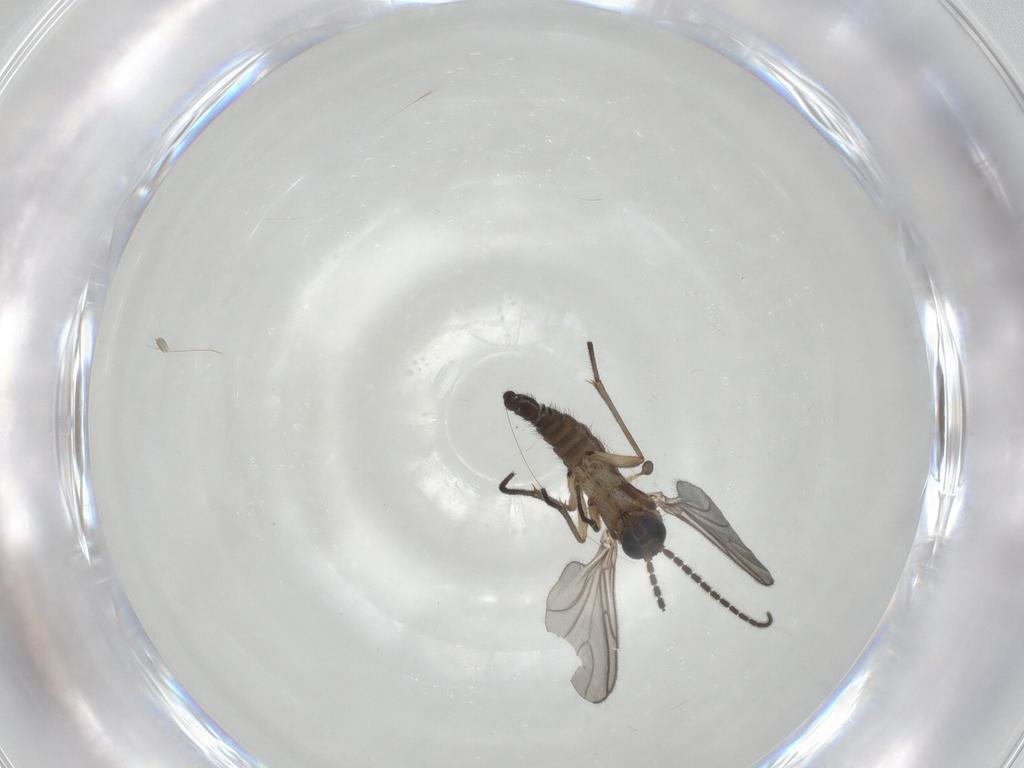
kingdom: Animalia
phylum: Arthropoda
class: Insecta
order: Diptera
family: Sciaridae
